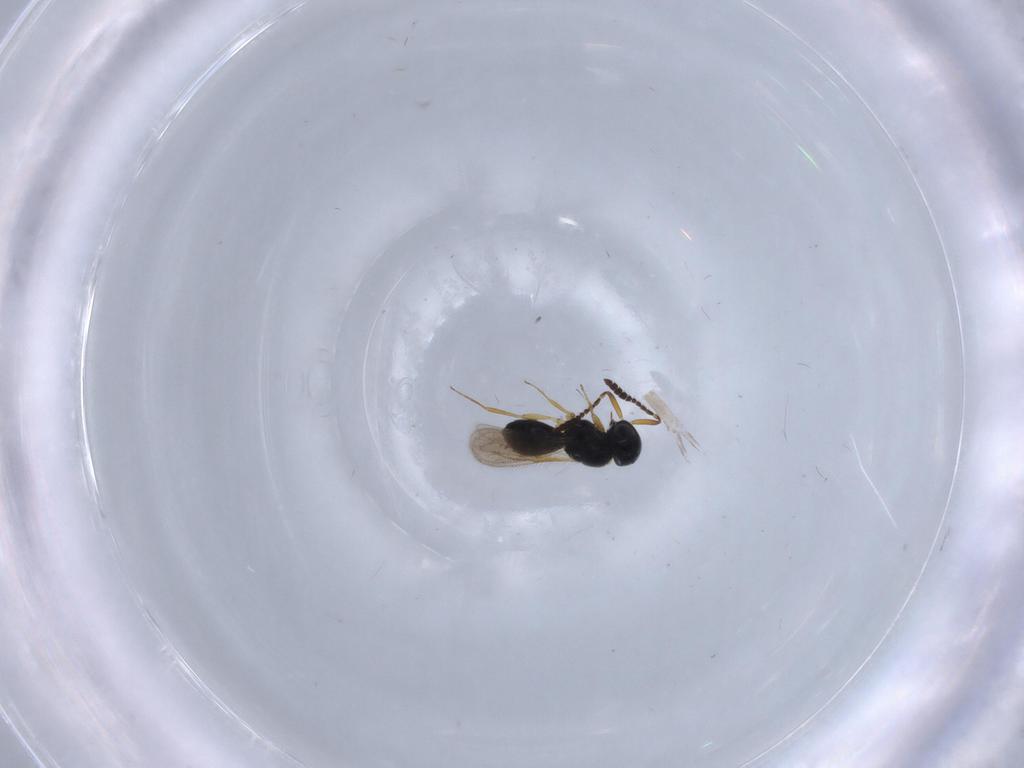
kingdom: Animalia
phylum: Arthropoda
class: Insecta
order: Hymenoptera
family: Scelionidae
